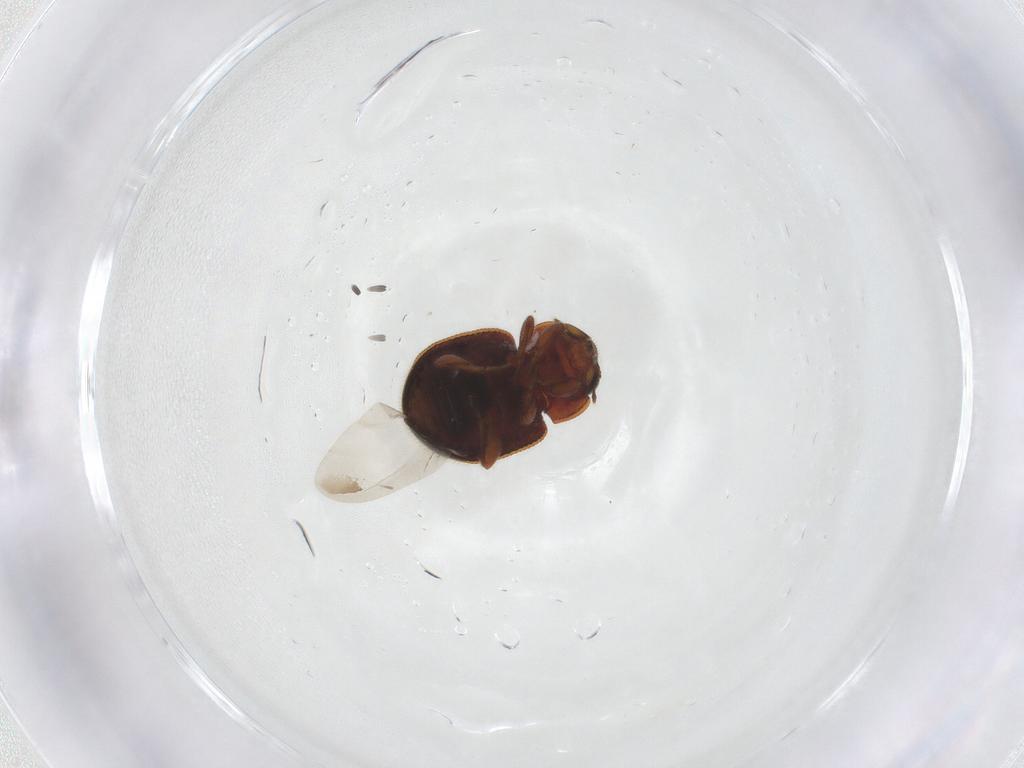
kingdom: Animalia
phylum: Arthropoda
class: Insecta
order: Coleoptera
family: Coccinellidae
